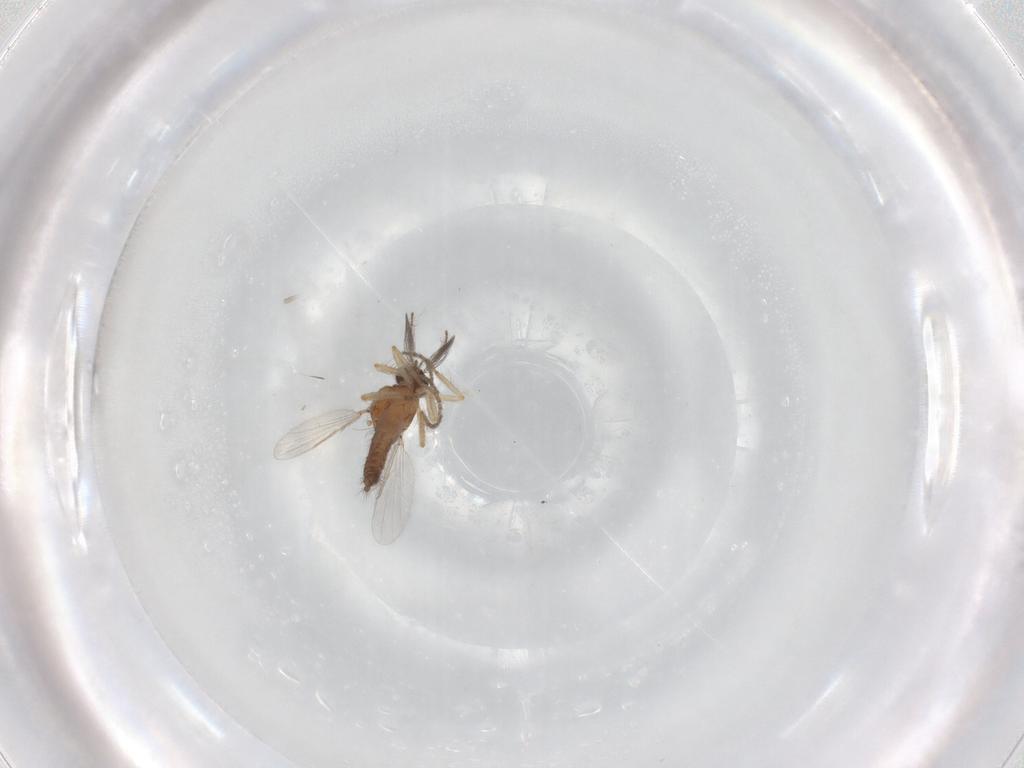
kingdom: Animalia
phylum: Arthropoda
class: Insecta
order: Diptera
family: Ceratopogonidae
